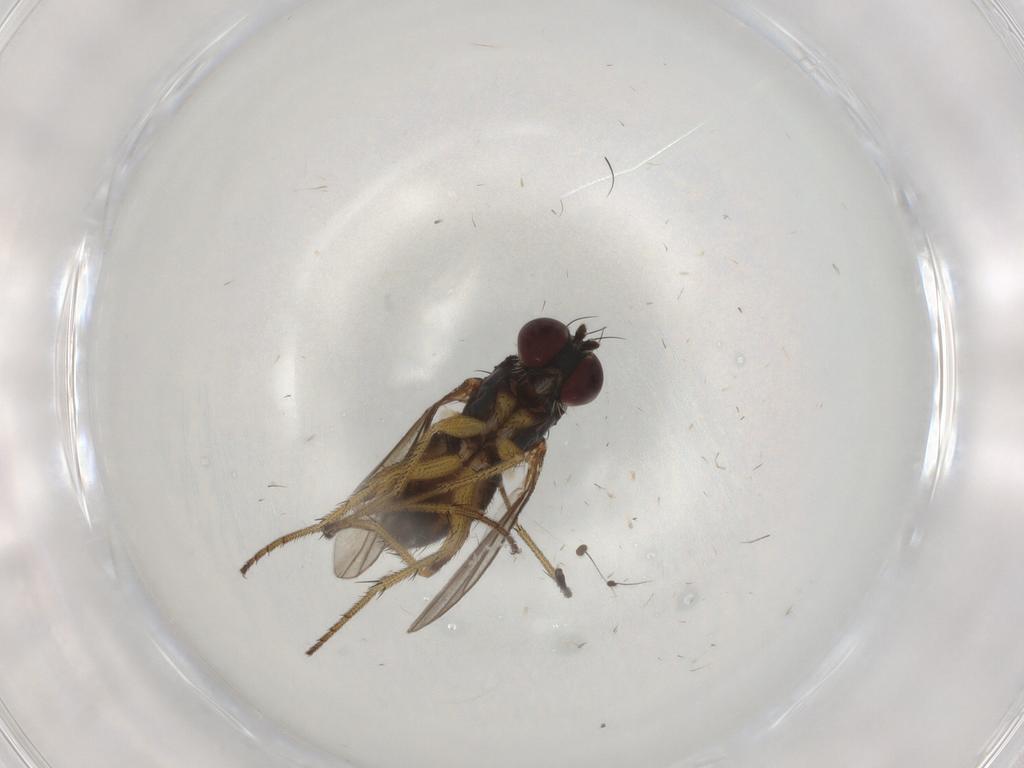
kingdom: Animalia
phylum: Arthropoda
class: Insecta
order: Diptera
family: Dolichopodidae
